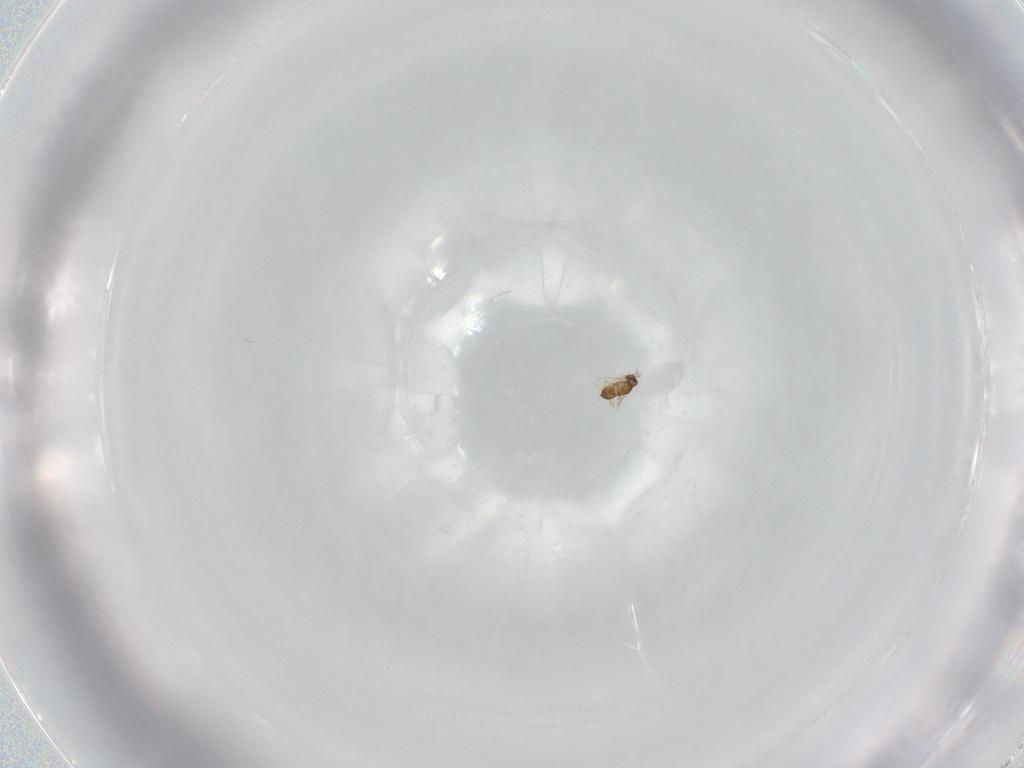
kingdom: Animalia
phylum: Arthropoda
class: Insecta
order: Hymenoptera
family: Mymaridae
